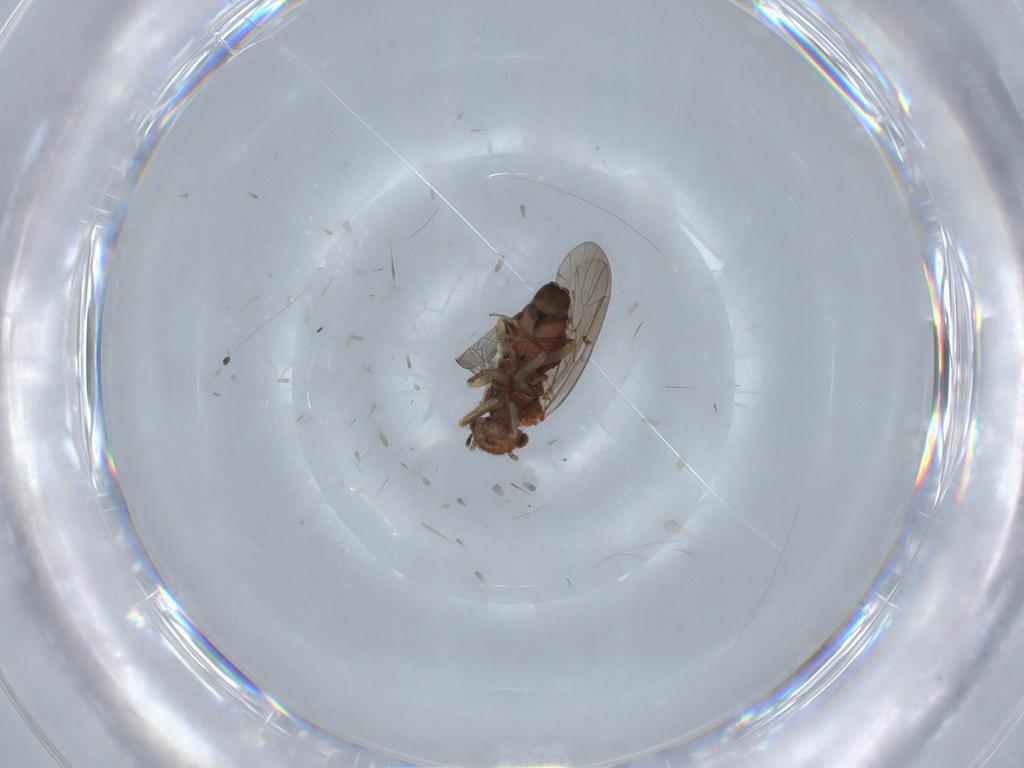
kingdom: Animalia
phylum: Arthropoda
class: Insecta
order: Psocodea
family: Ectopsocidae
